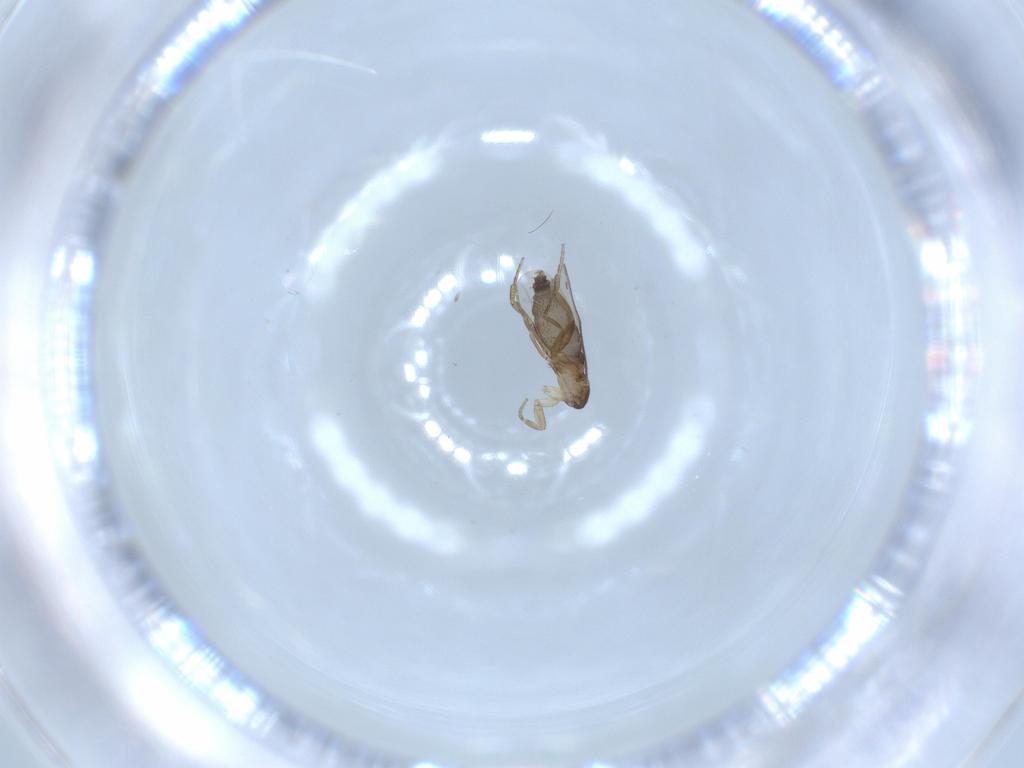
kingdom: Animalia
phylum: Arthropoda
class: Insecta
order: Diptera
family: Phoridae
